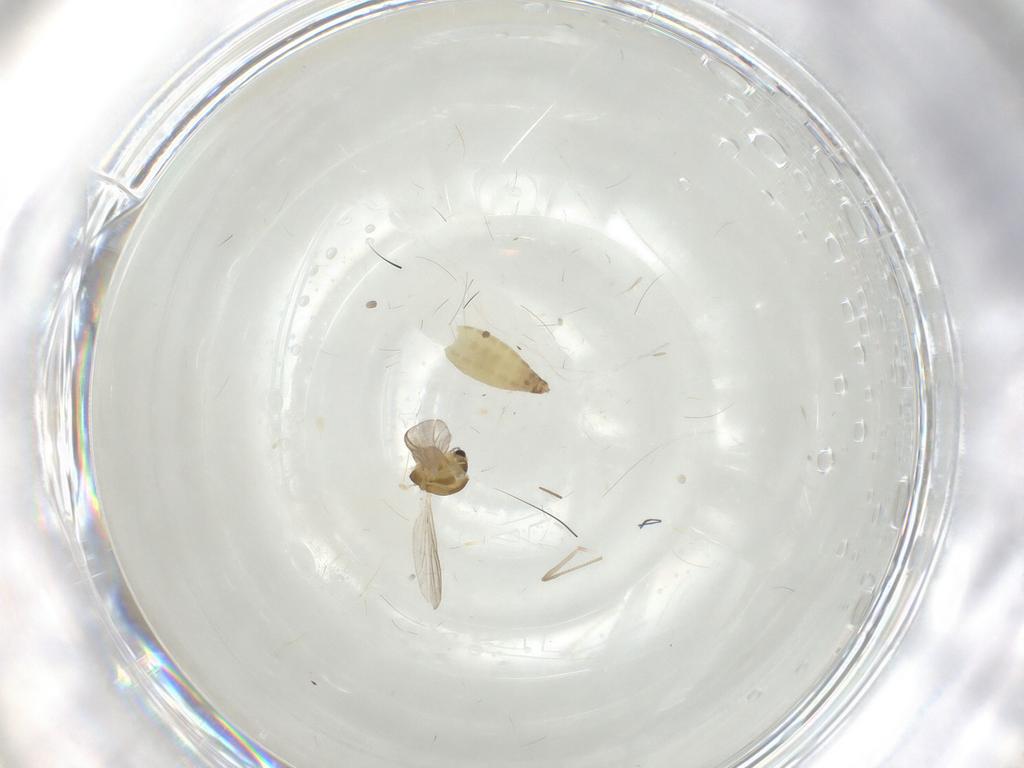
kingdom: Animalia
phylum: Arthropoda
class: Insecta
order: Diptera
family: Chironomidae
